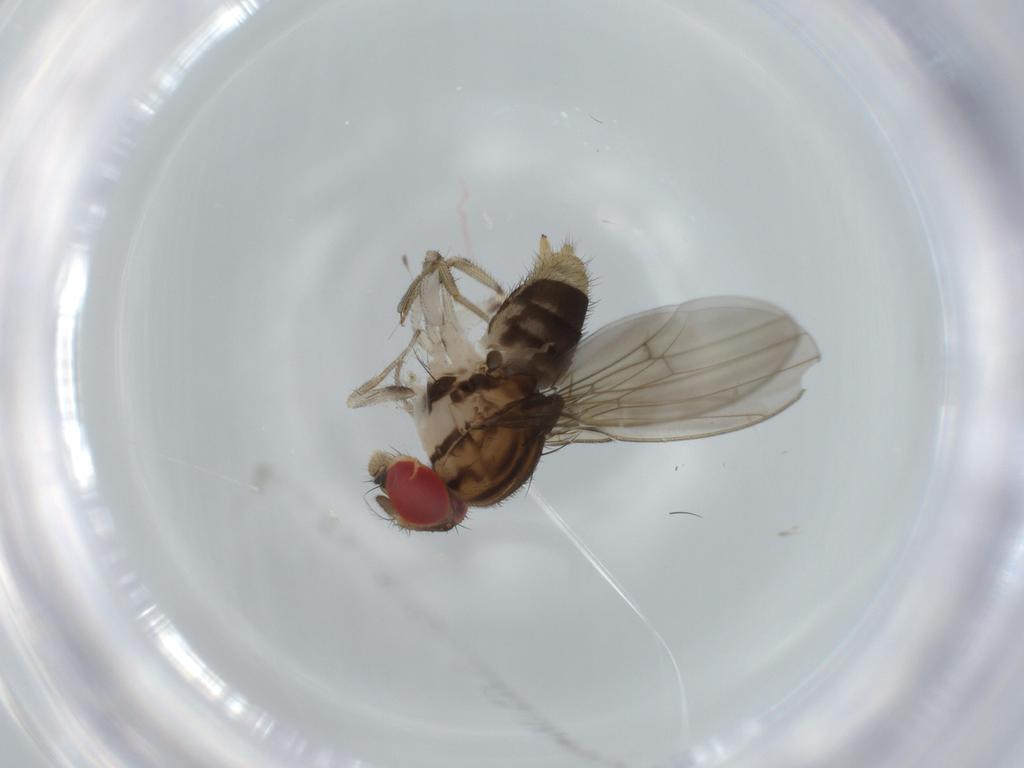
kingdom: Animalia
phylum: Arthropoda
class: Insecta
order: Diptera
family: Drosophilidae
